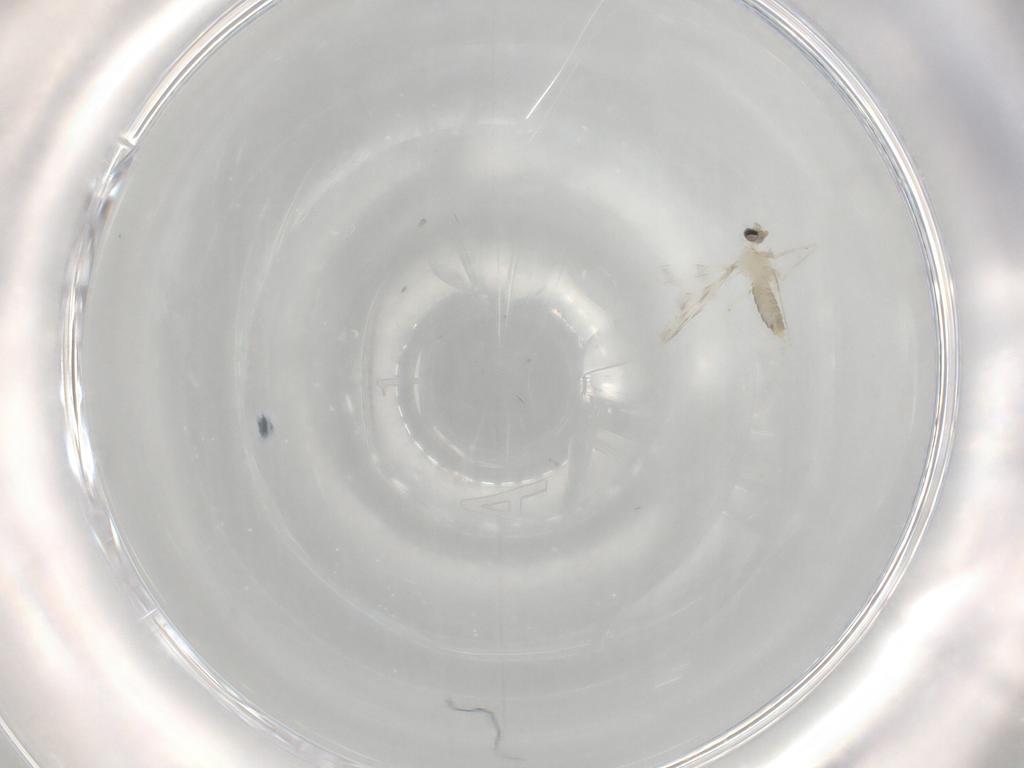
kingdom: Animalia
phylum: Arthropoda
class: Insecta
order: Diptera
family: Cecidomyiidae
